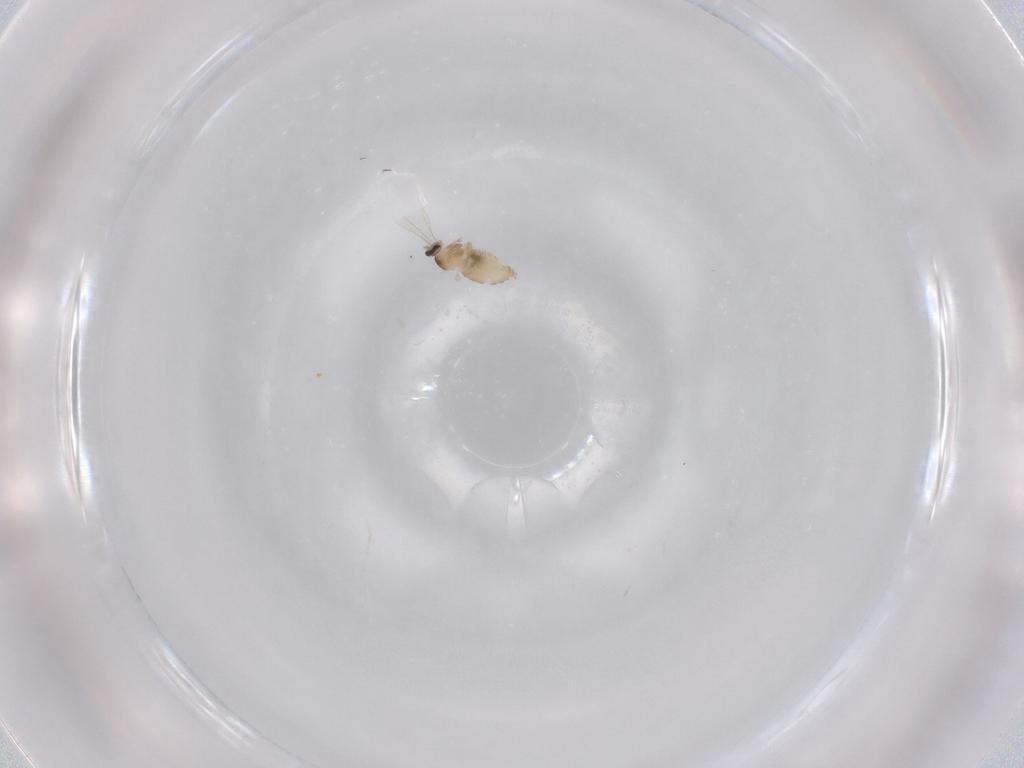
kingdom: Animalia
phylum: Arthropoda
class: Insecta
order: Diptera
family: Cecidomyiidae
